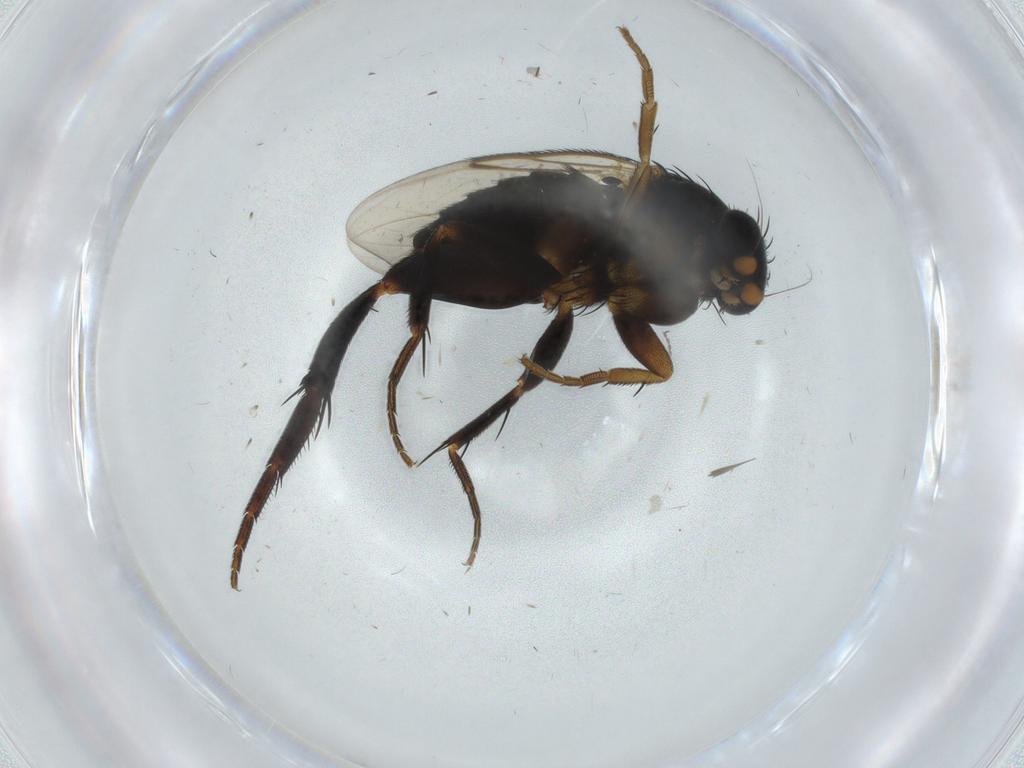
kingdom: Animalia
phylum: Arthropoda
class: Insecta
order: Diptera
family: Phoridae
